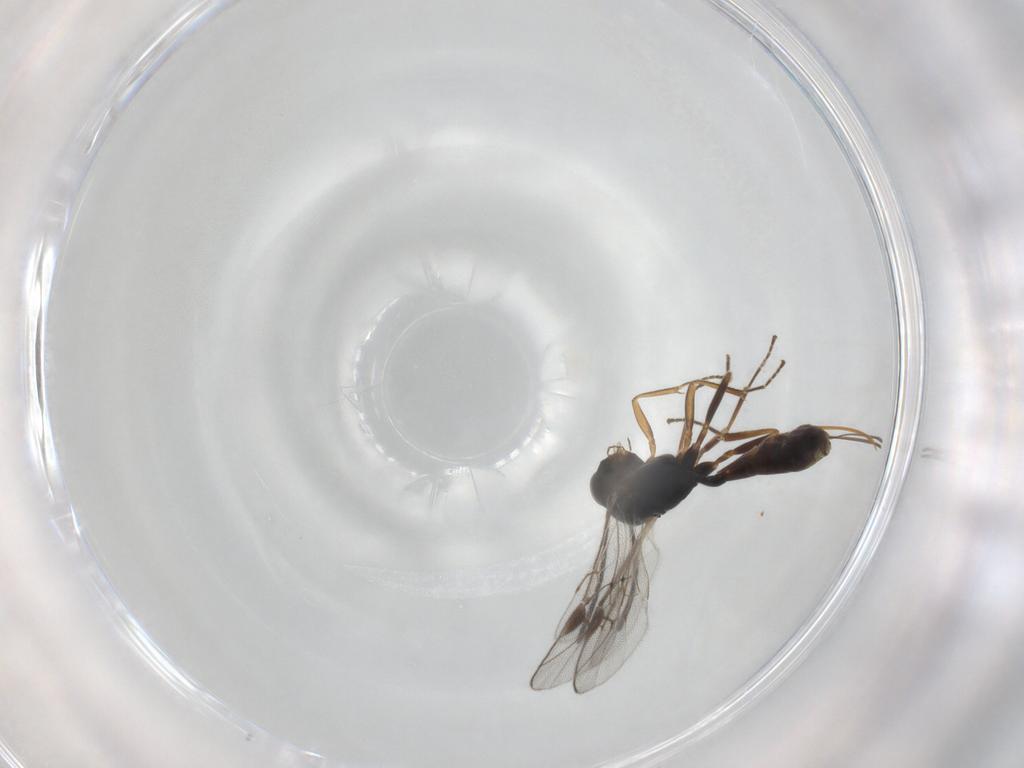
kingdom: Animalia
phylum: Arthropoda
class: Insecta
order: Hymenoptera
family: Ichneumonidae
